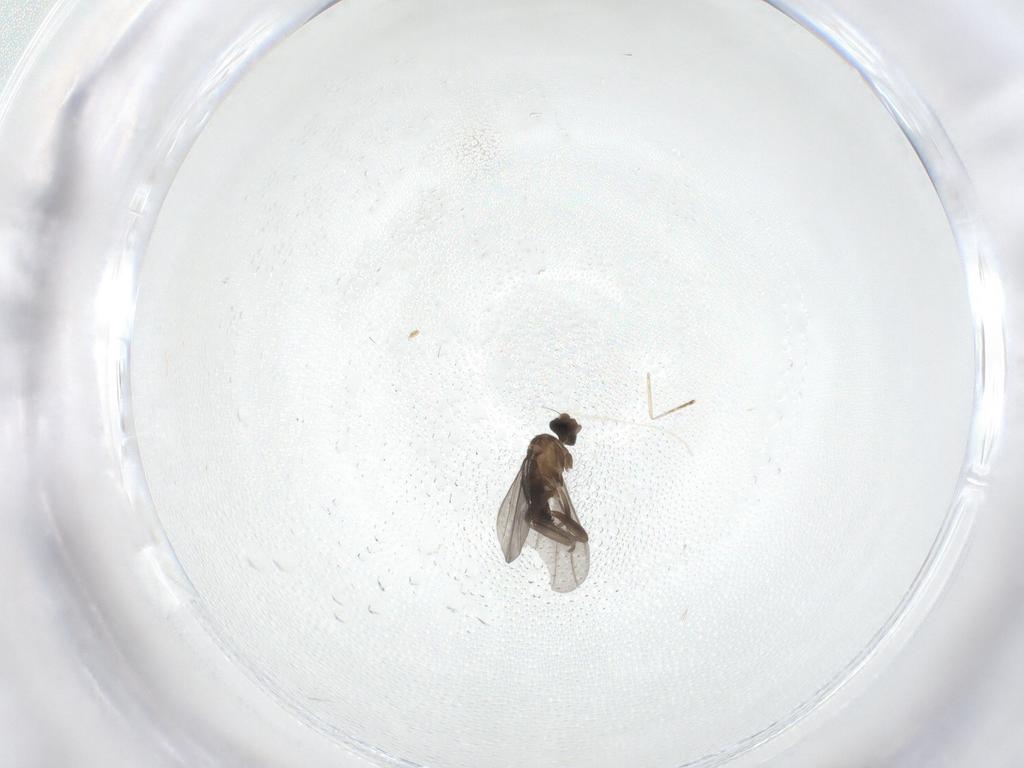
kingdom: Animalia
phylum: Arthropoda
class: Insecta
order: Diptera
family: Cecidomyiidae
